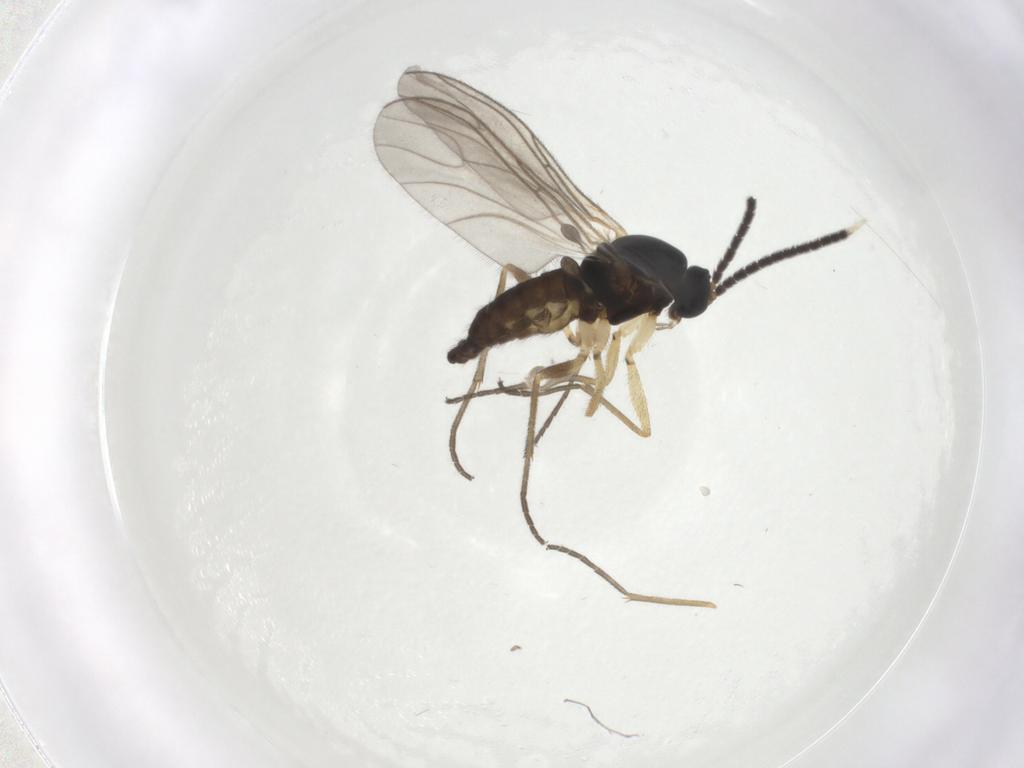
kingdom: Animalia
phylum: Arthropoda
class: Insecta
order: Diptera
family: Sciaridae
